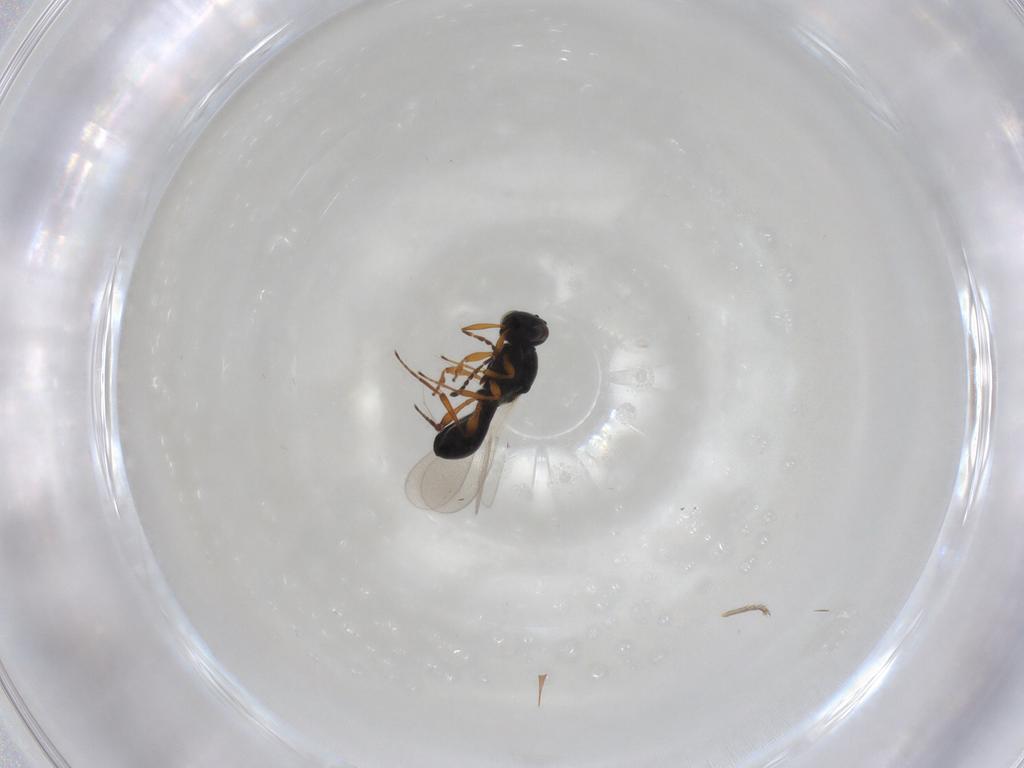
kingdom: Animalia
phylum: Arthropoda
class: Insecta
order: Hymenoptera
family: Platygastridae
